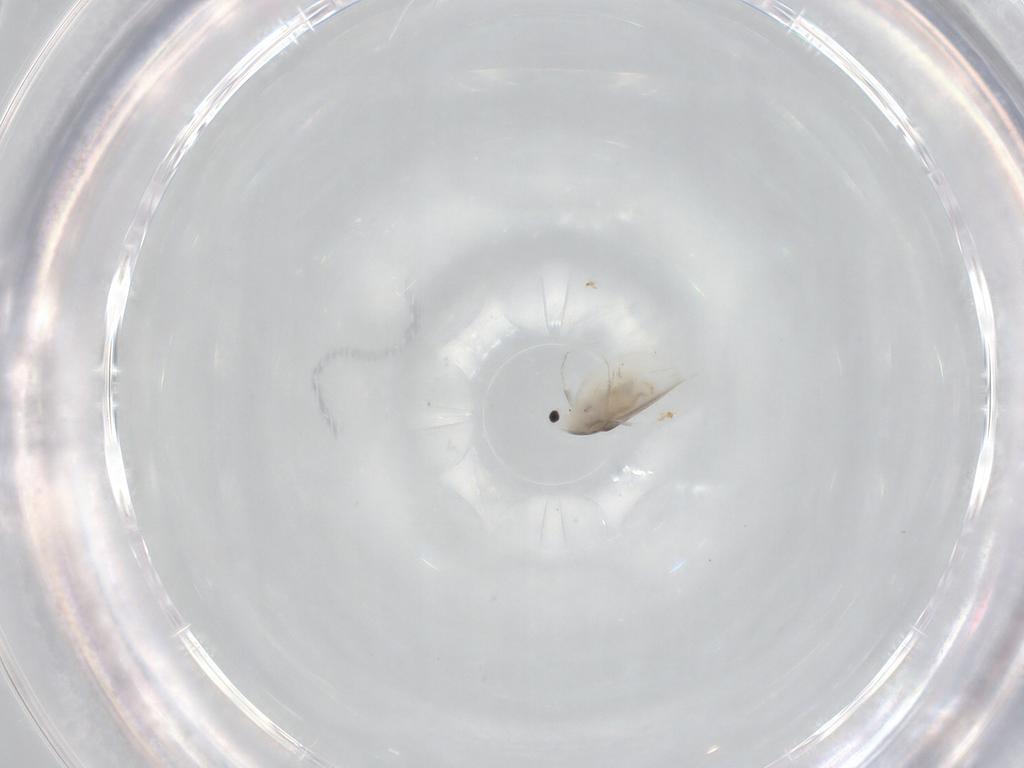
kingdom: Animalia
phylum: Arthropoda
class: Branchiopoda
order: Diplostraca
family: Daphniidae
